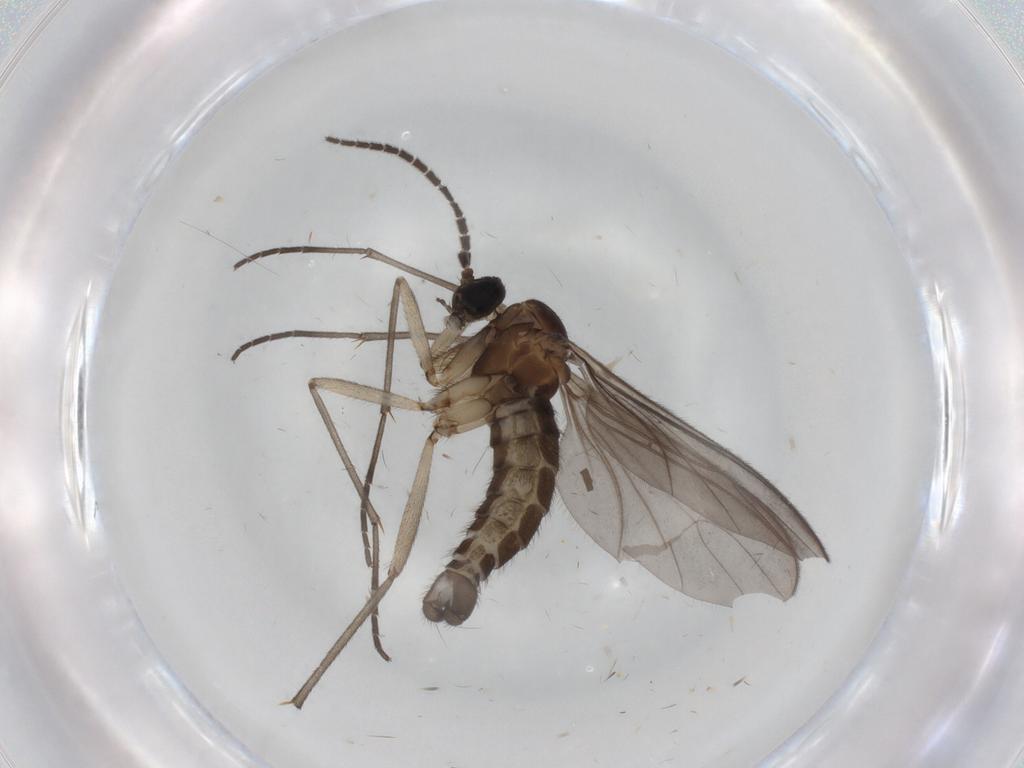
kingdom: Animalia
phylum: Arthropoda
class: Insecta
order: Diptera
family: Sciaridae
